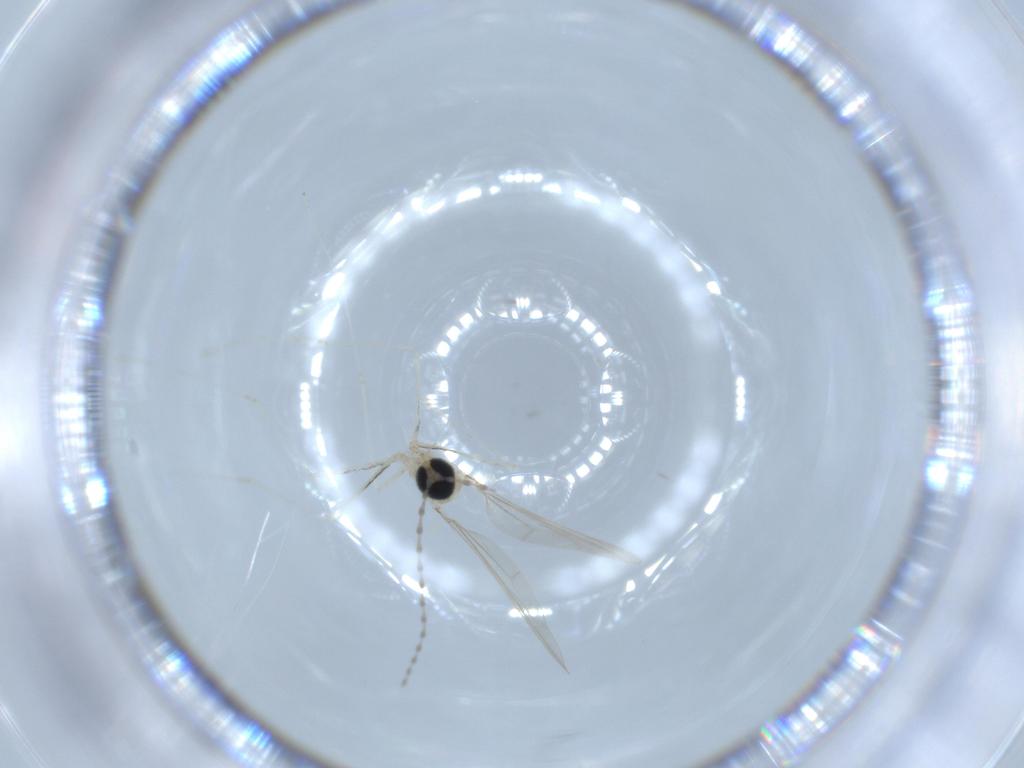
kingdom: Animalia
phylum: Arthropoda
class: Insecta
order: Diptera
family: Cecidomyiidae
